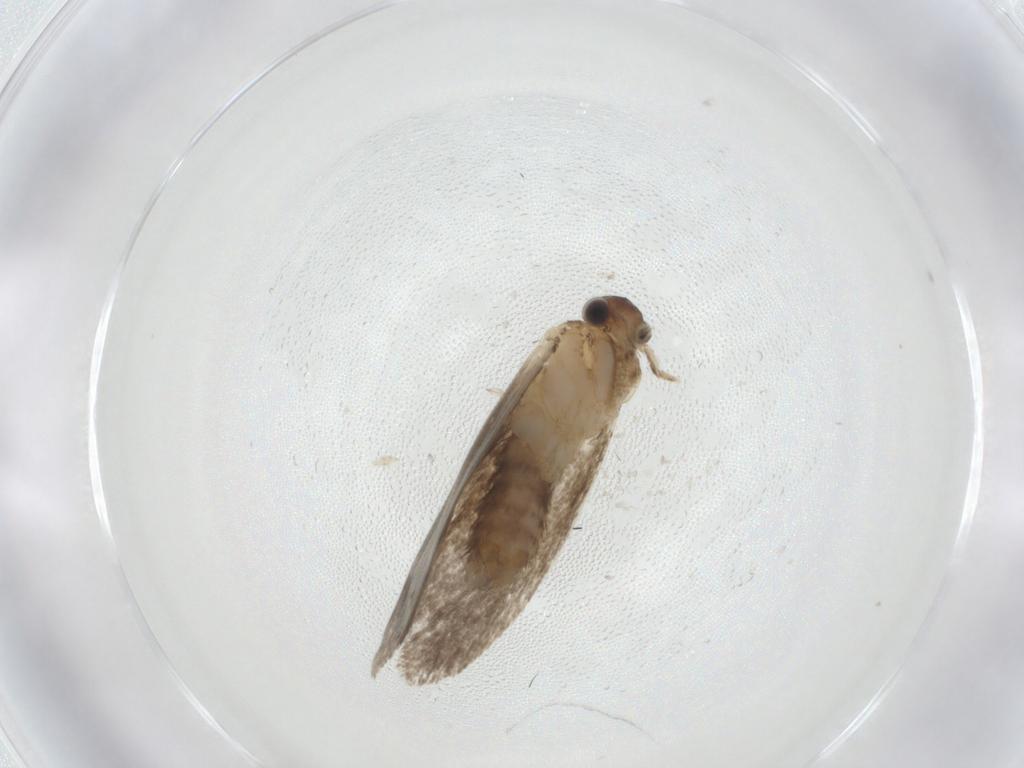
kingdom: Animalia
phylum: Arthropoda
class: Insecta
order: Lepidoptera
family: Dryadaulidae
